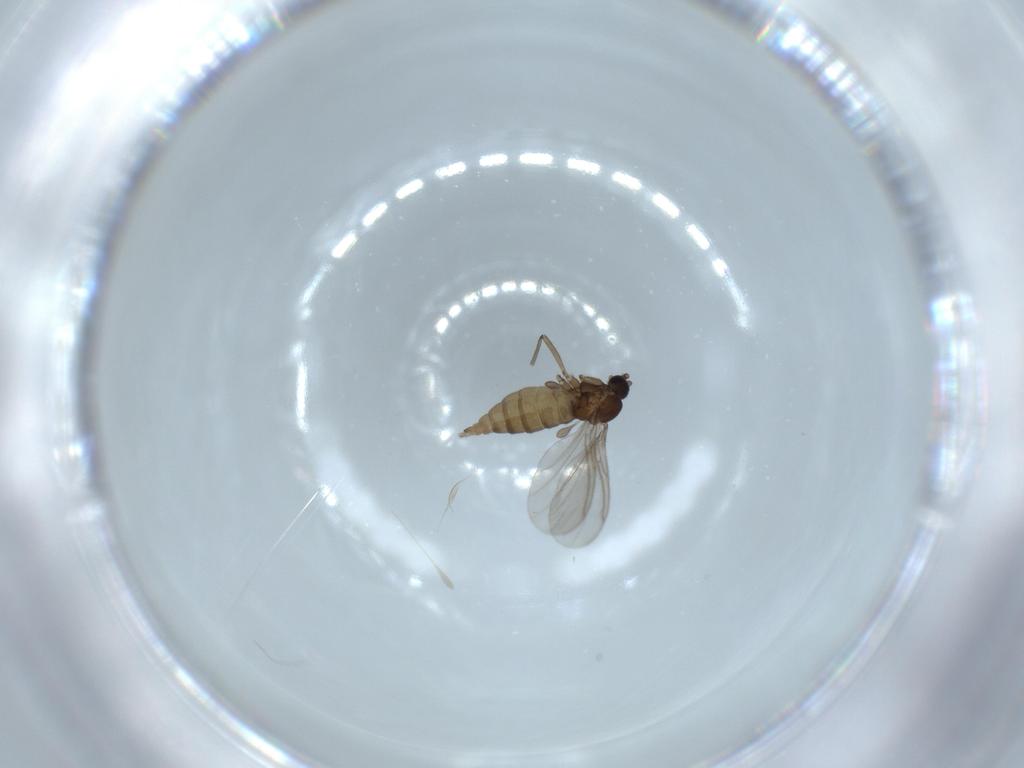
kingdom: Animalia
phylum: Arthropoda
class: Insecta
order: Diptera
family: Sciaridae
